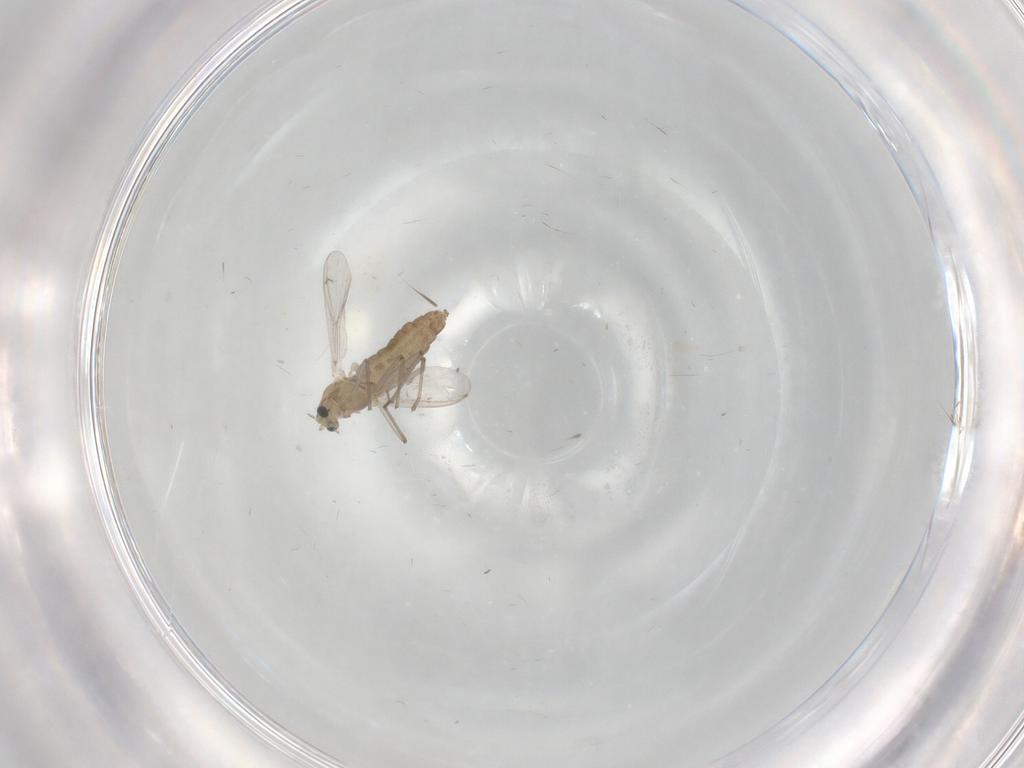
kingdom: Animalia
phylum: Arthropoda
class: Insecta
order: Diptera
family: Chironomidae
